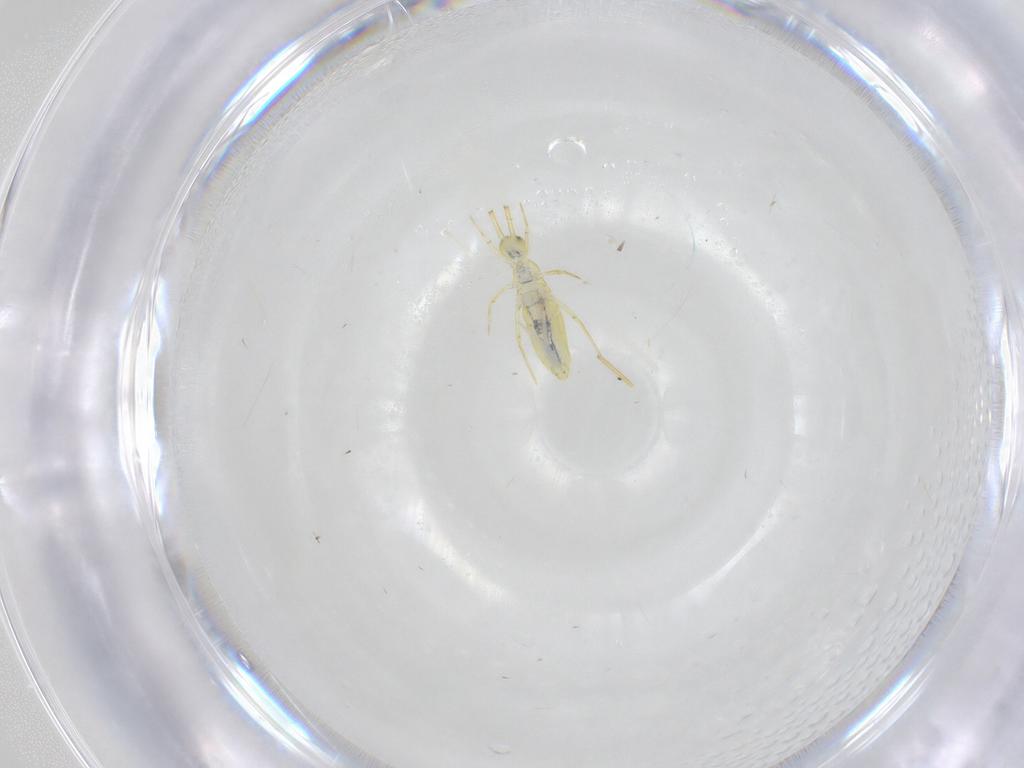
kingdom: Animalia
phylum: Arthropoda
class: Collembola
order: Entomobryomorpha
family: Paronellidae
